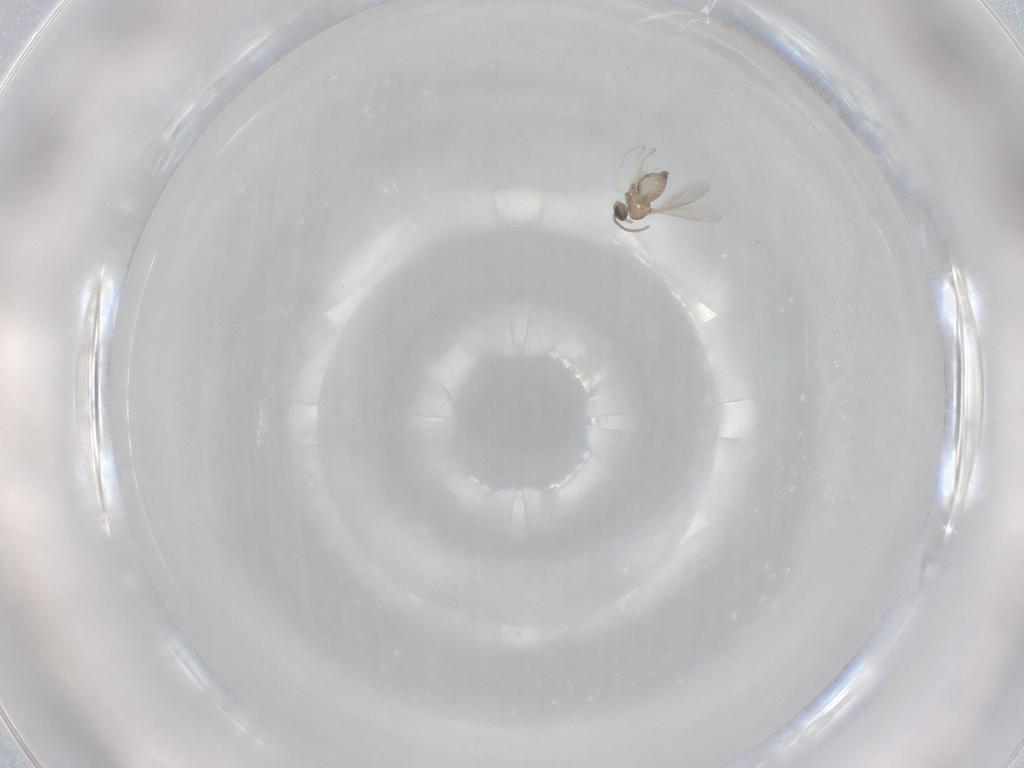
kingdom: Animalia
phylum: Arthropoda
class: Insecta
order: Diptera
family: Cecidomyiidae
